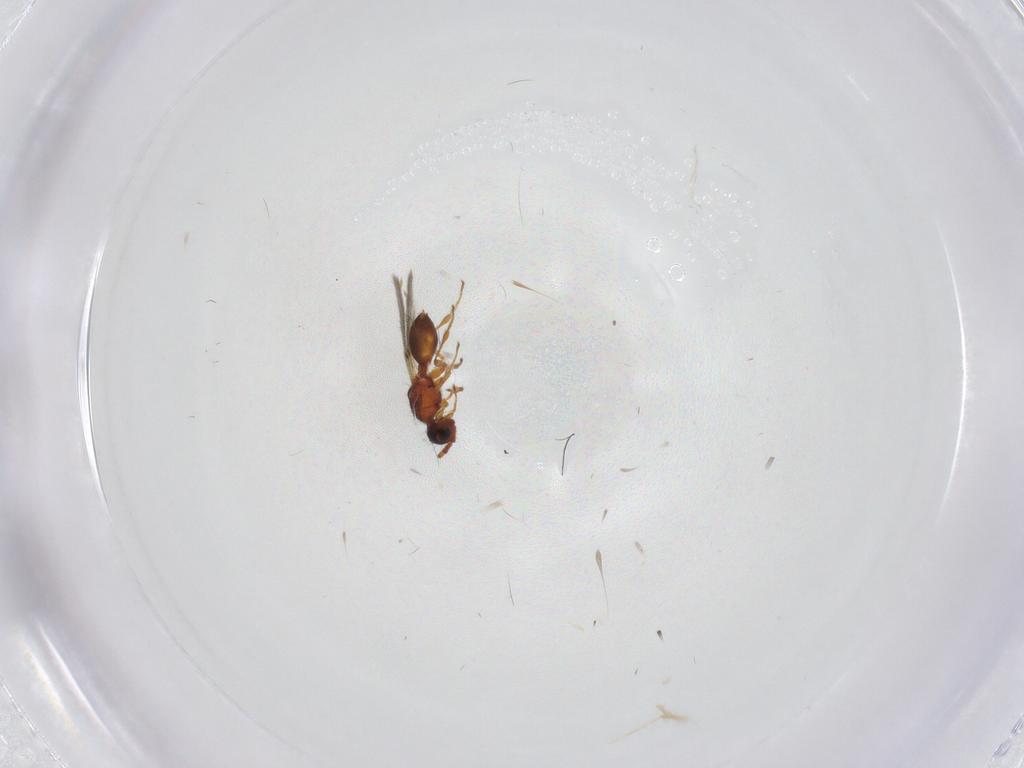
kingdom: Animalia
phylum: Arthropoda
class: Insecta
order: Hymenoptera
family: Diapriidae
